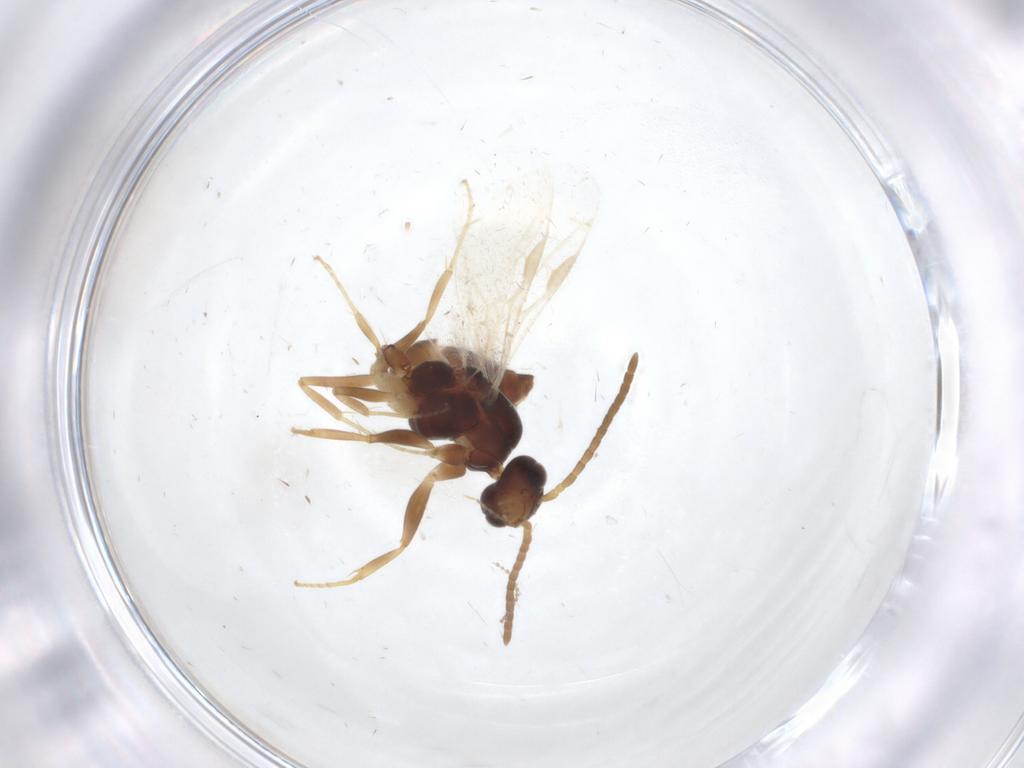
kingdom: Animalia
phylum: Arthropoda
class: Insecta
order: Hymenoptera
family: Formicidae
